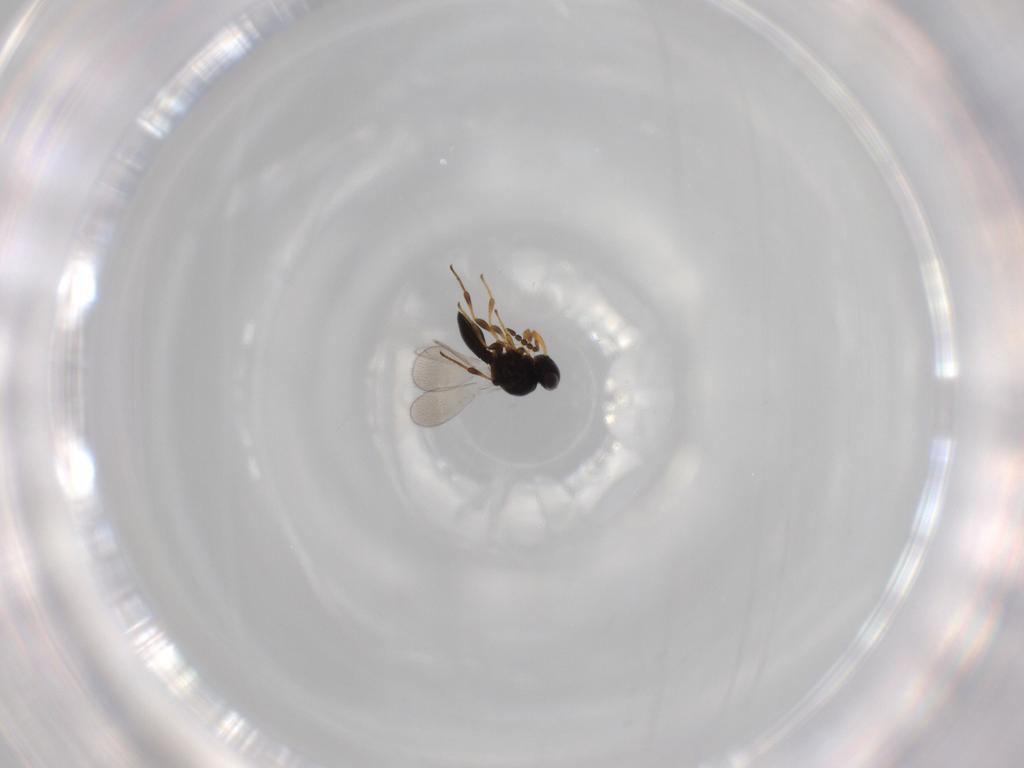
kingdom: Animalia
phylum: Arthropoda
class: Insecta
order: Hymenoptera
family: Platygastridae
